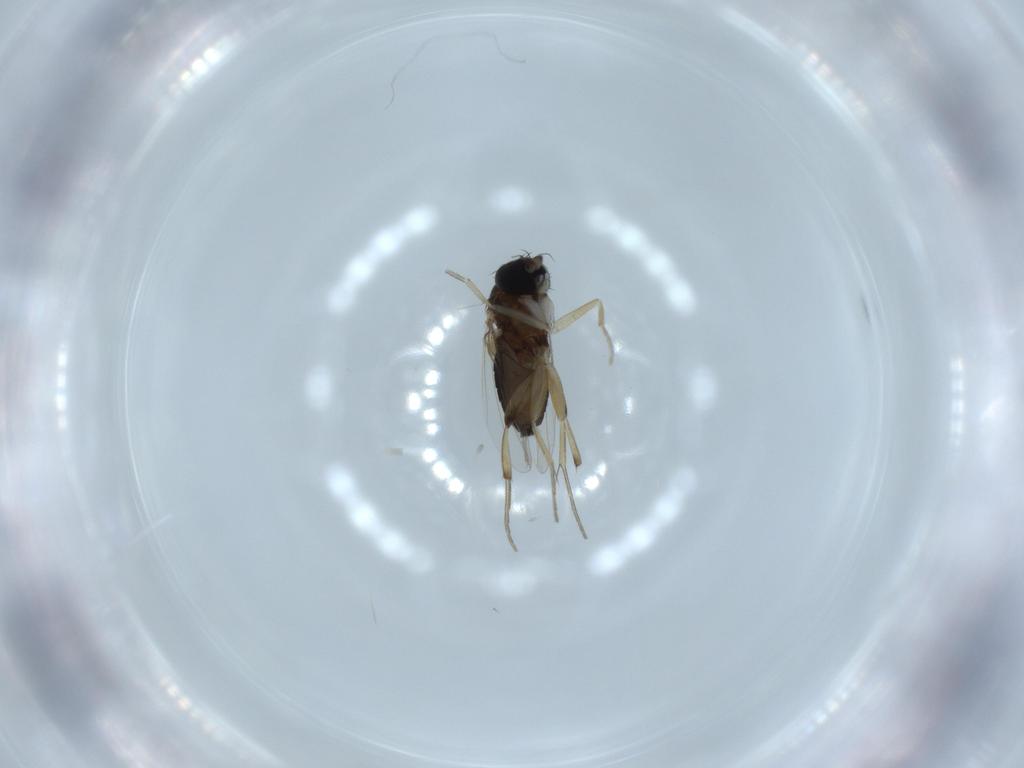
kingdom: Animalia
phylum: Arthropoda
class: Insecta
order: Diptera
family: Phoridae
